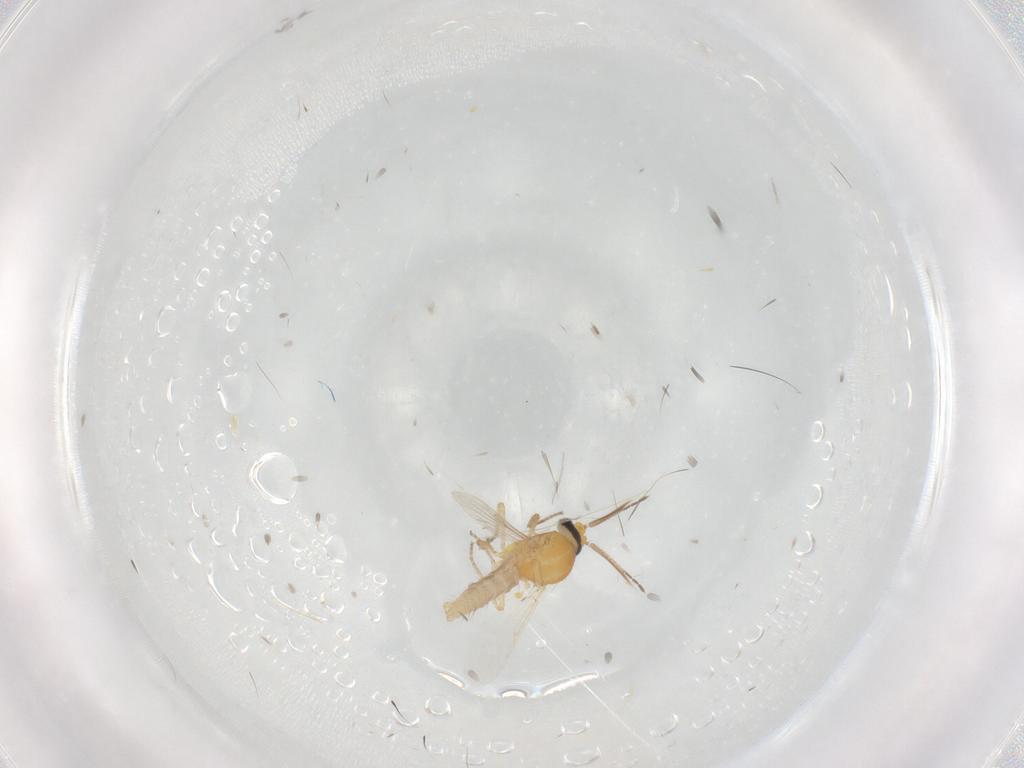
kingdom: Animalia
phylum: Arthropoda
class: Insecta
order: Diptera
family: Ceratopogonidae
